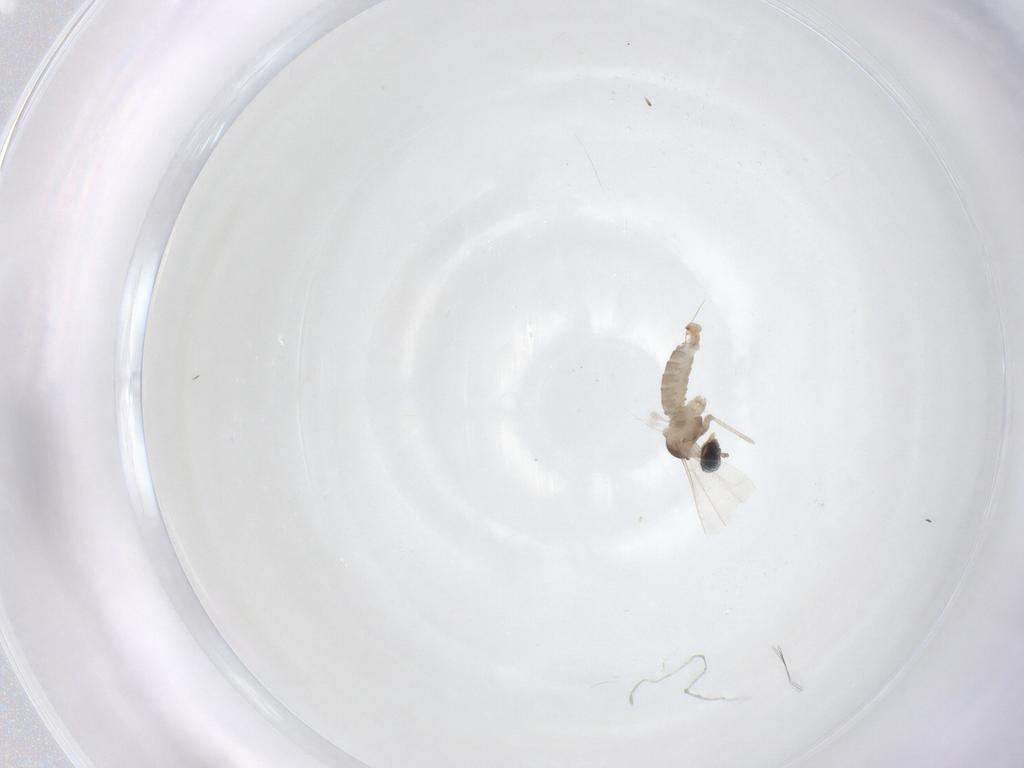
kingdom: Animalia
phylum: Arthropoda
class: Insecta
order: Diptera
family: Cecidomyiidae
